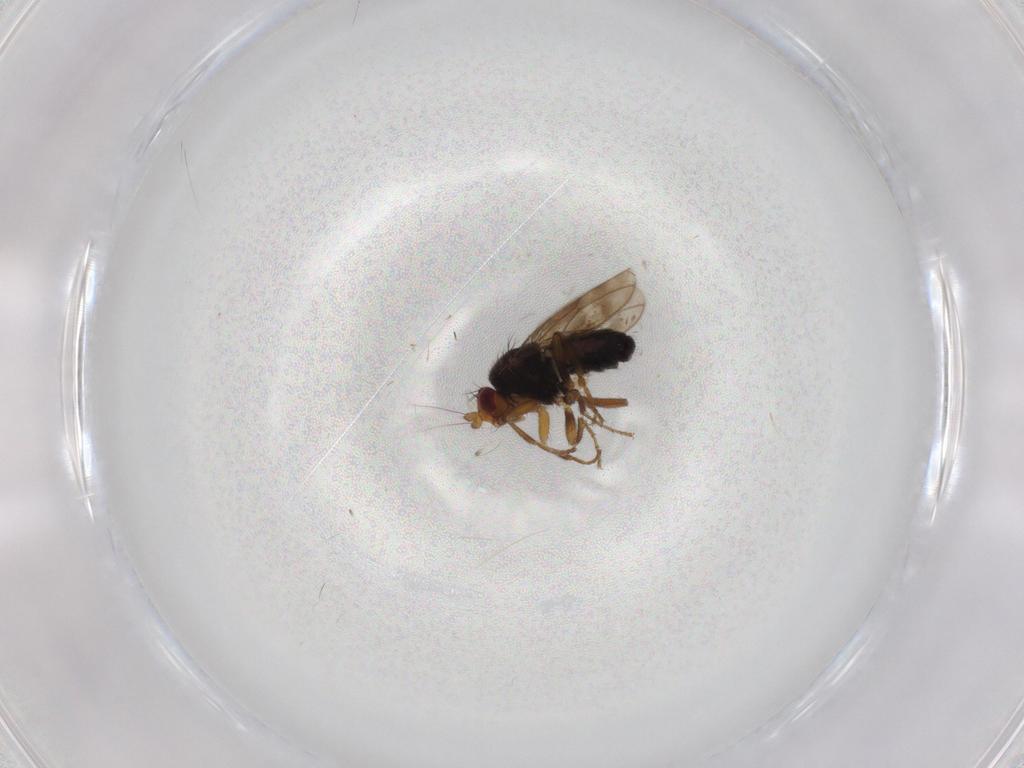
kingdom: Animalia
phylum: Arthropoda
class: Insecta
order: Diptera
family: Sphaeroceridae
